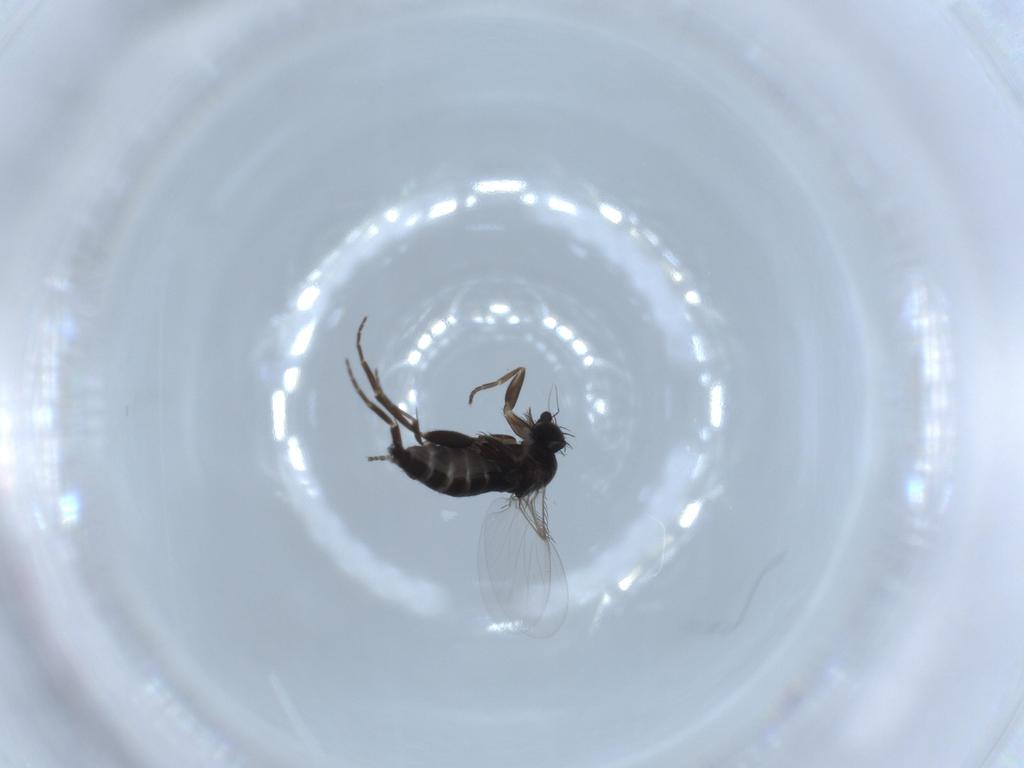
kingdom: Animalia
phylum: Arthropoda
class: Insecta
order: Diptera
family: Phoridae
